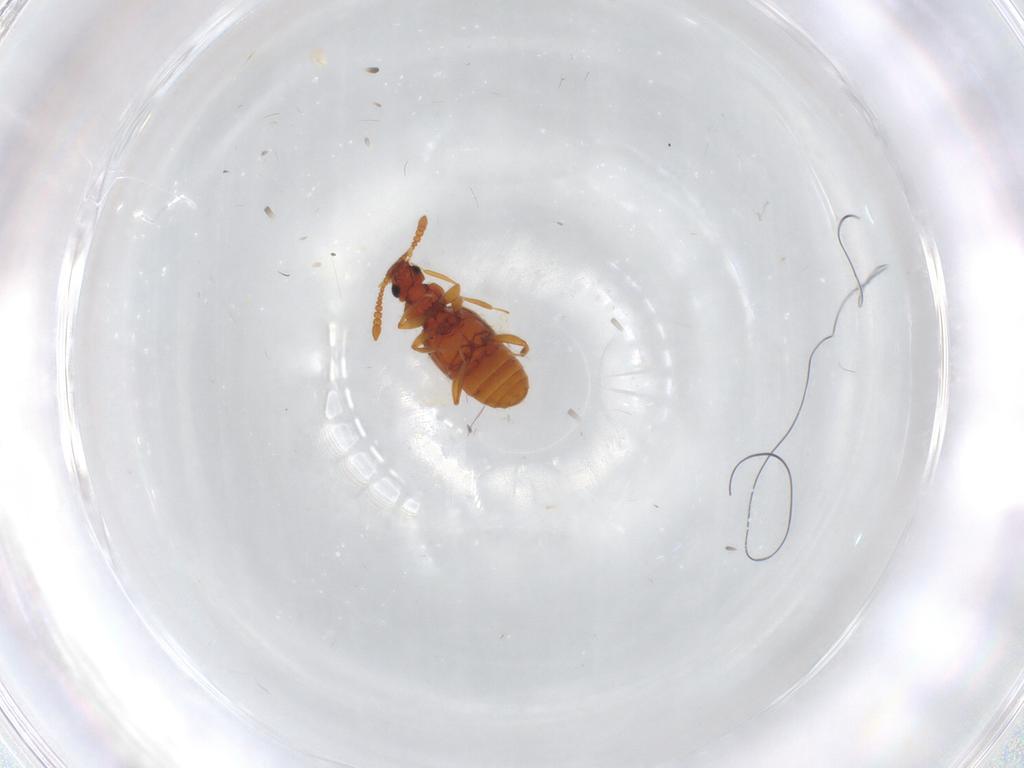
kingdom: Animalia
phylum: Arthropoda
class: Insecta
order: Coleoptera
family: Staphylinidae
